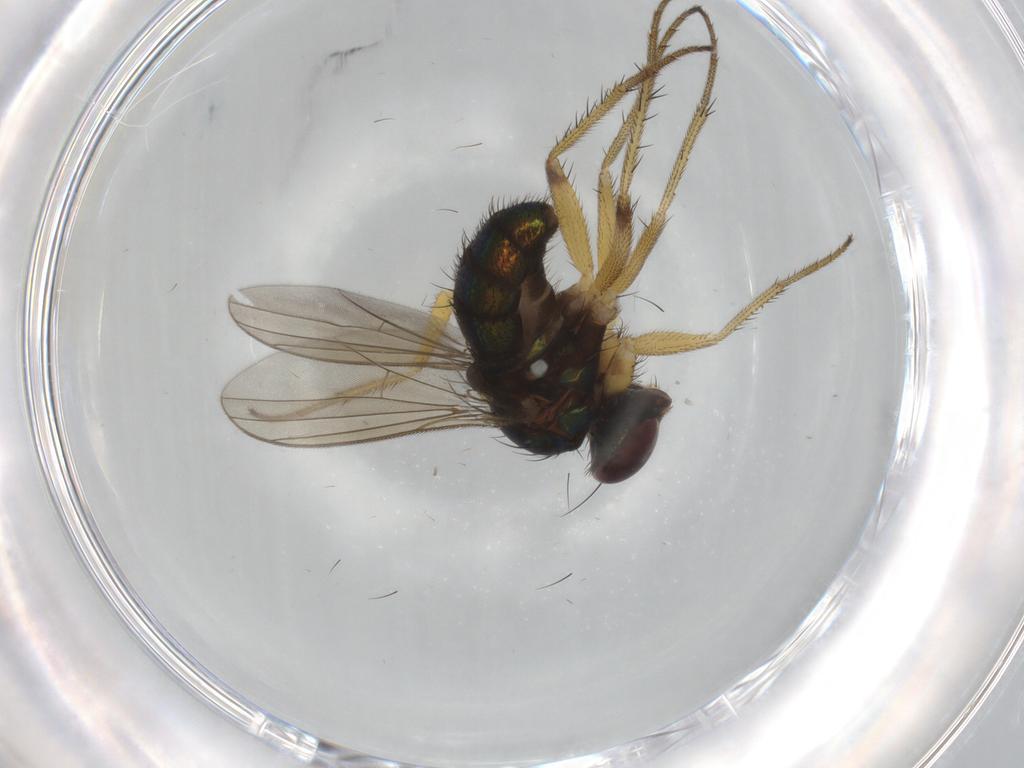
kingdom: Animalia
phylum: Arthropoda
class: Insecta
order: Diptera
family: Dolichopodidae
